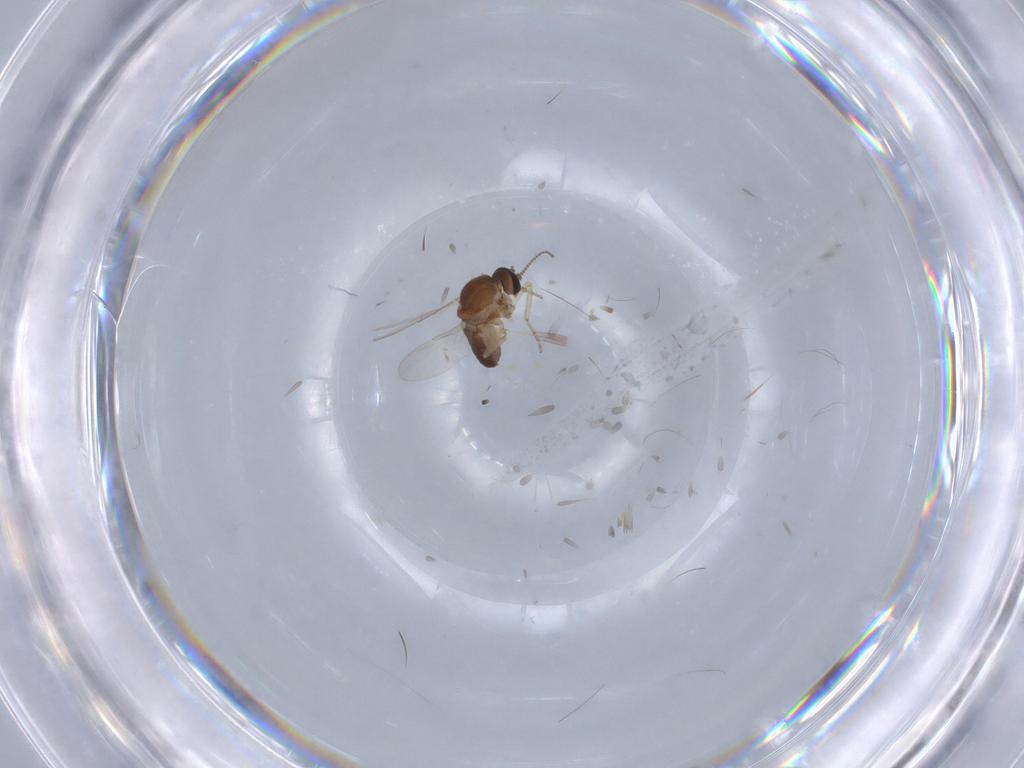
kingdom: Animalia
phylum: Arthropoda
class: Insecta
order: Diptera
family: Ceratopogonidae
